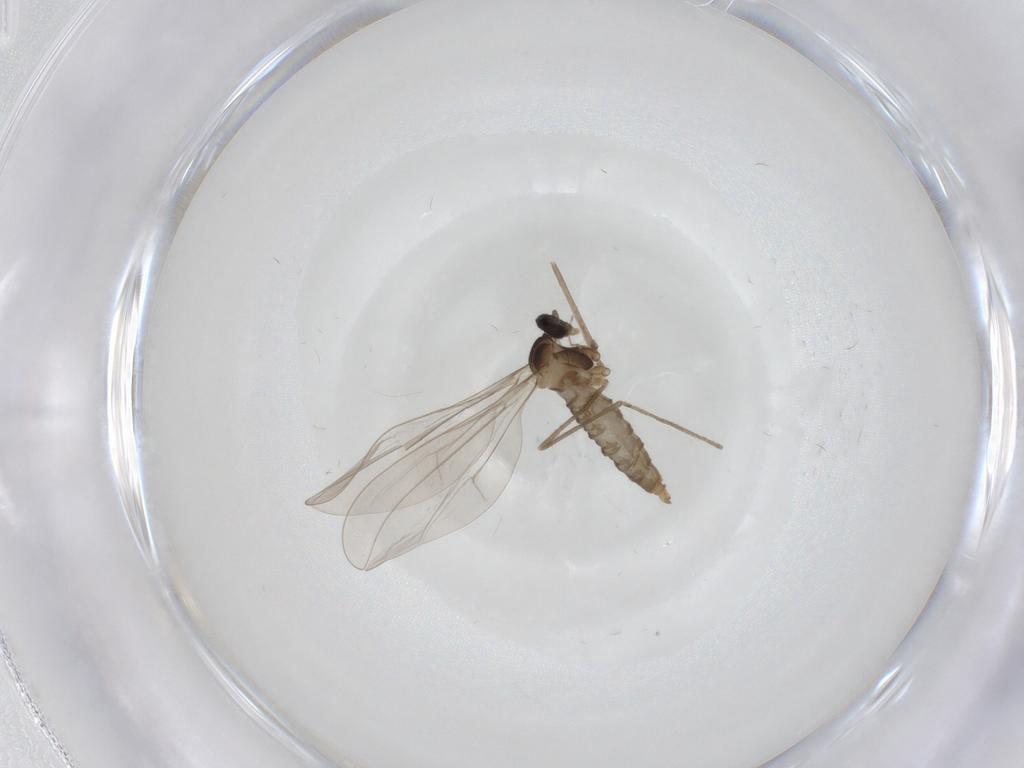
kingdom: Animalia
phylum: Arthropoda
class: Insecta
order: Diptera
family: Cecidomyiidae
